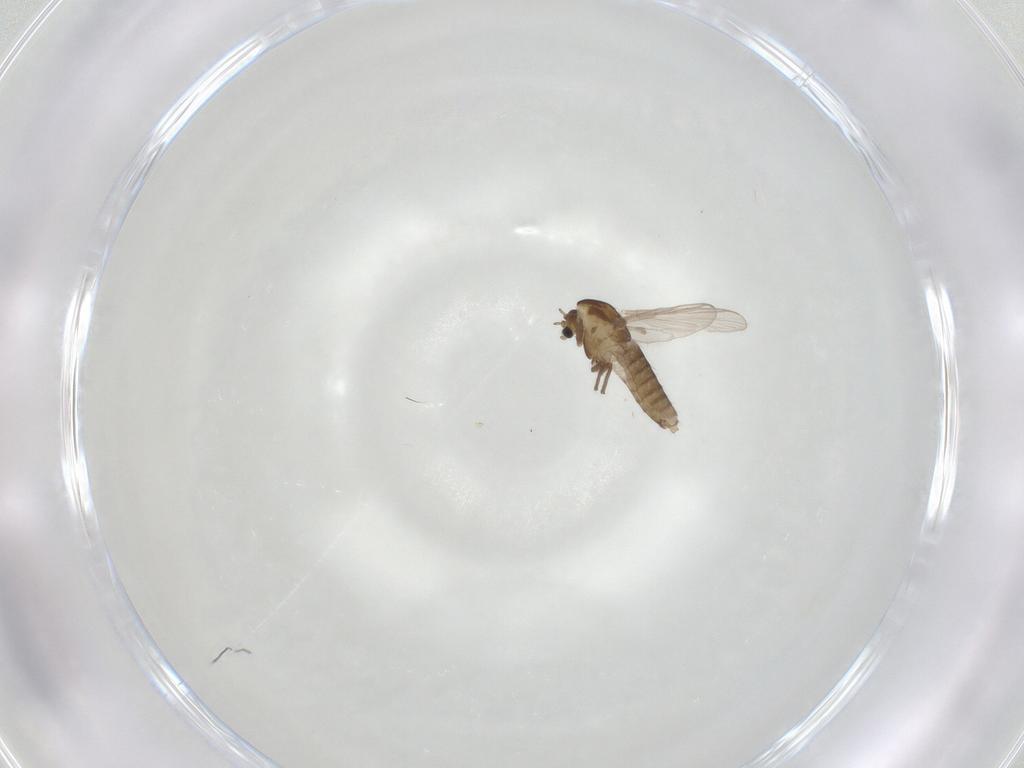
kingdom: Animalia
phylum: Arthropoda
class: Insecta
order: Diptera
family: Chironomidae
